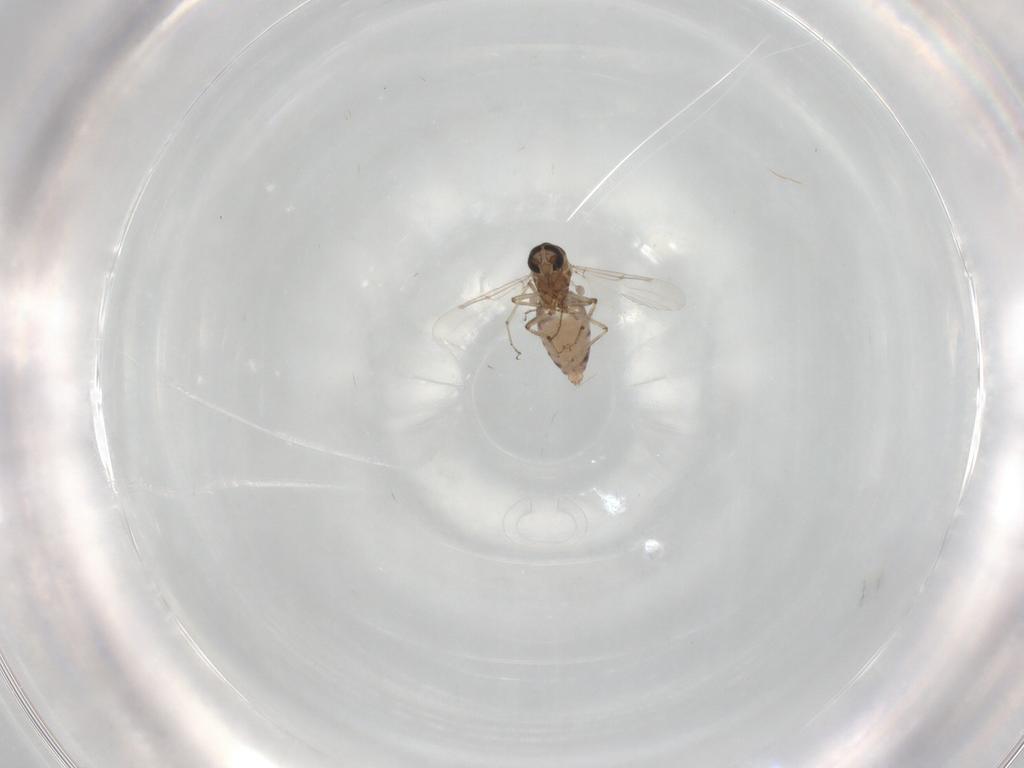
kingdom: Animalia
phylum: Arthropoda
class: Insecta
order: Diptera
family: Ceratopogonidae
